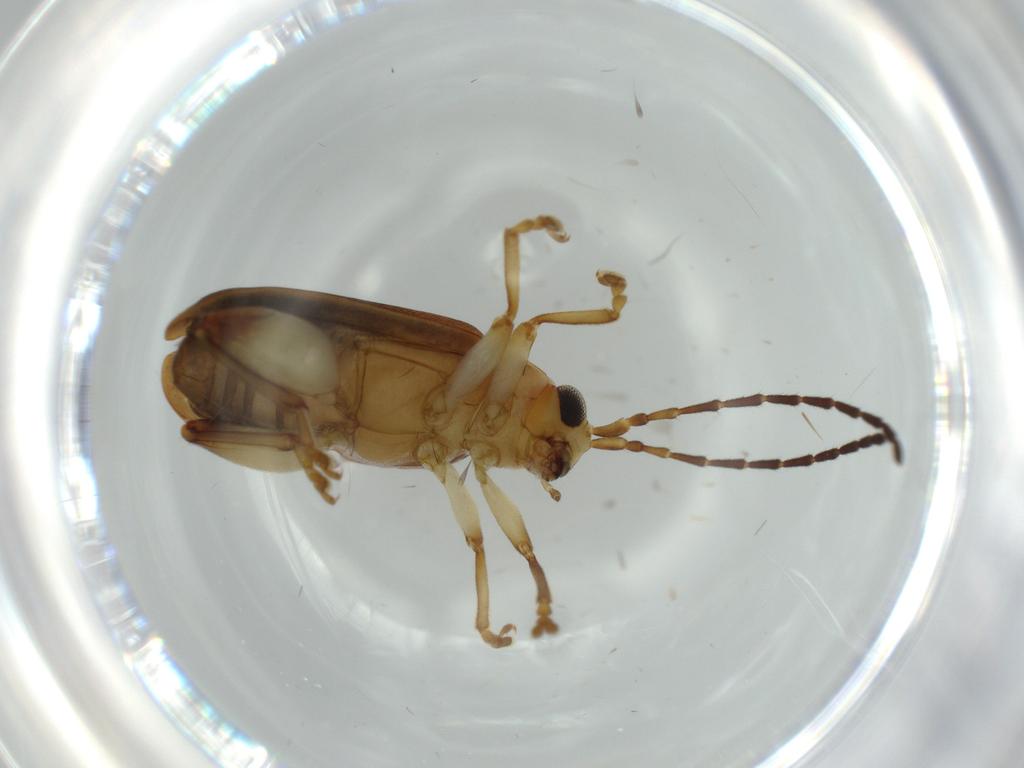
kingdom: Animalia
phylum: Arthropoda
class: Insecta
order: Coleoptera
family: Chrysomelidae
